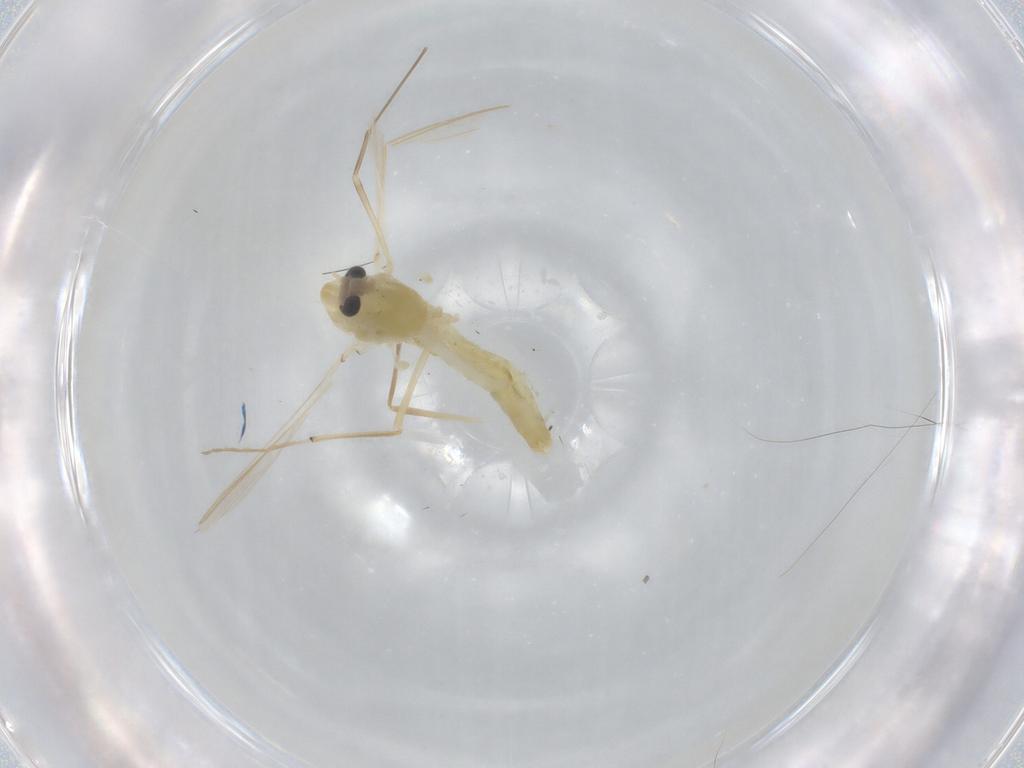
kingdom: Animalia
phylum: Arthropoda
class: Insecta
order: Diptera
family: Chironomidae
